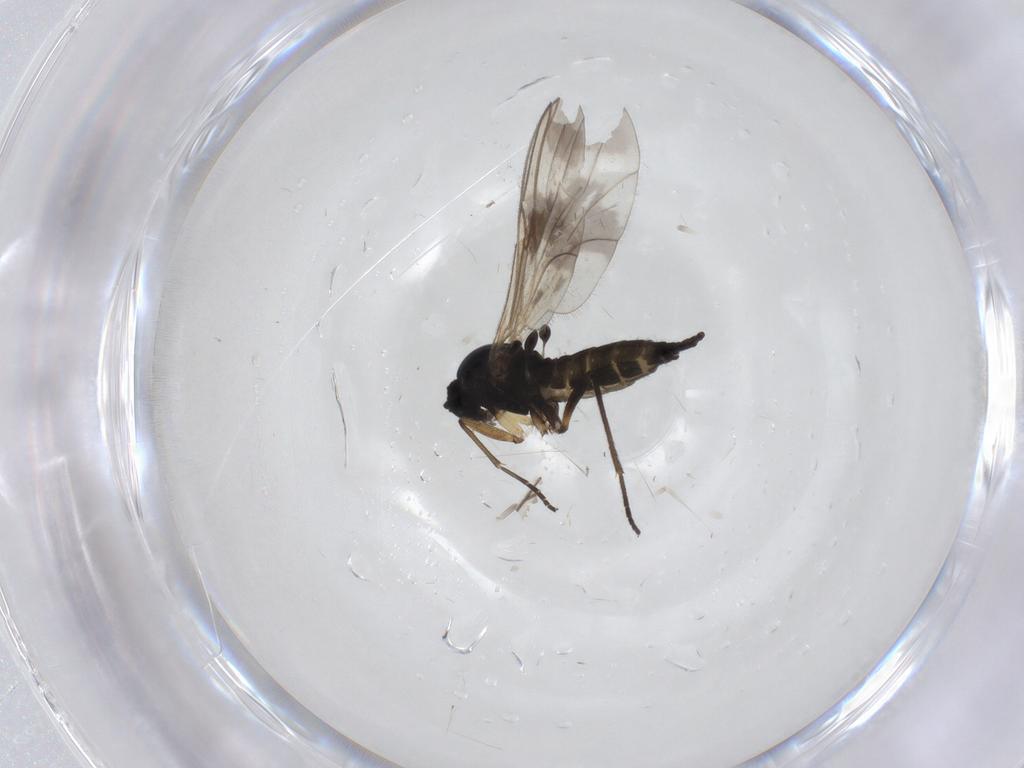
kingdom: Animalia
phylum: Arthropoda
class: Insecta
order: Diptera
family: Sciaridae
